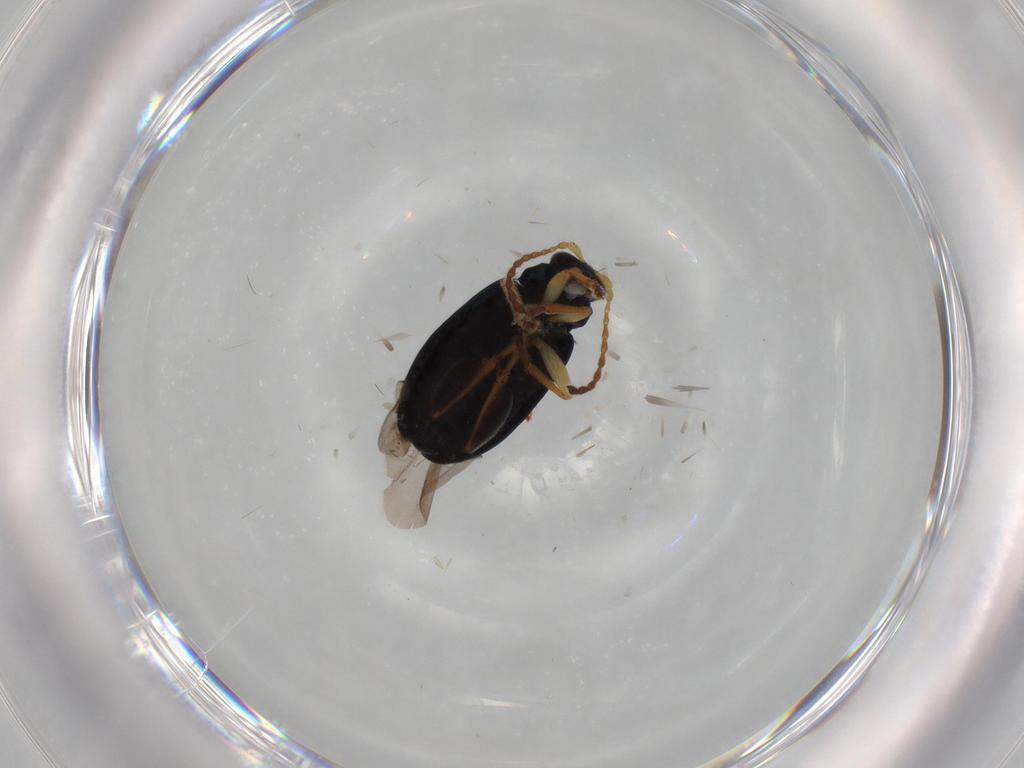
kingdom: Animalia
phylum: Arthropoda
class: Insecta
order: Coleoptera
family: Chrysomelidae
